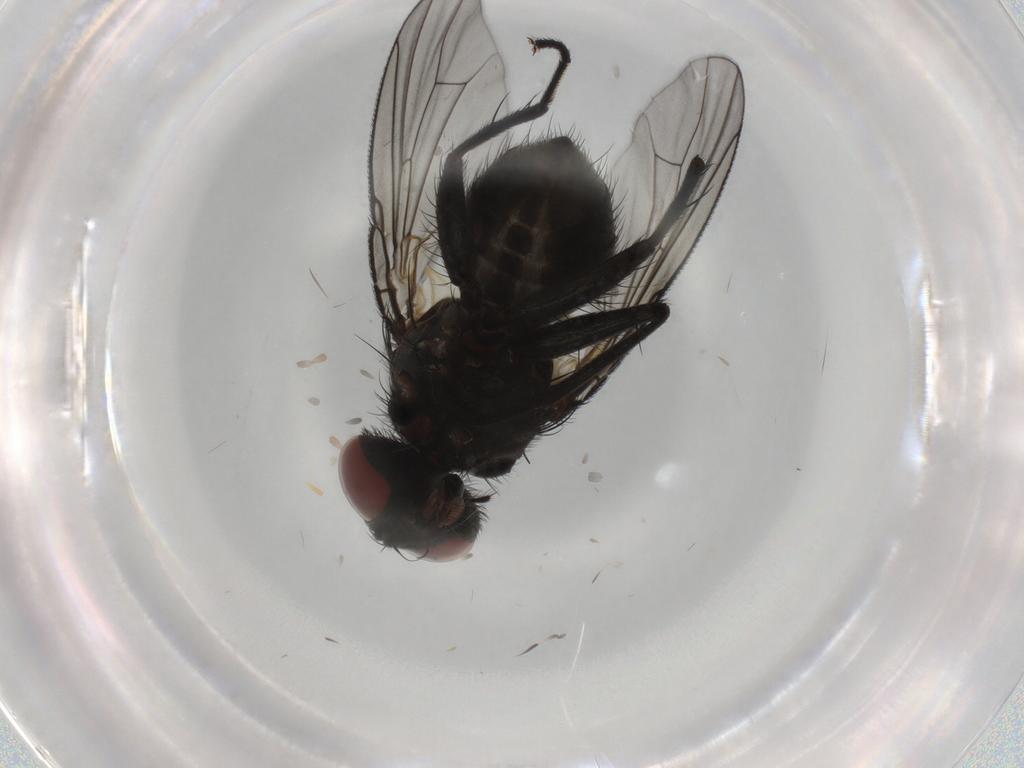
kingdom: Animalia
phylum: Arthropoda
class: Insecta
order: Diptera
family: Muscidae
